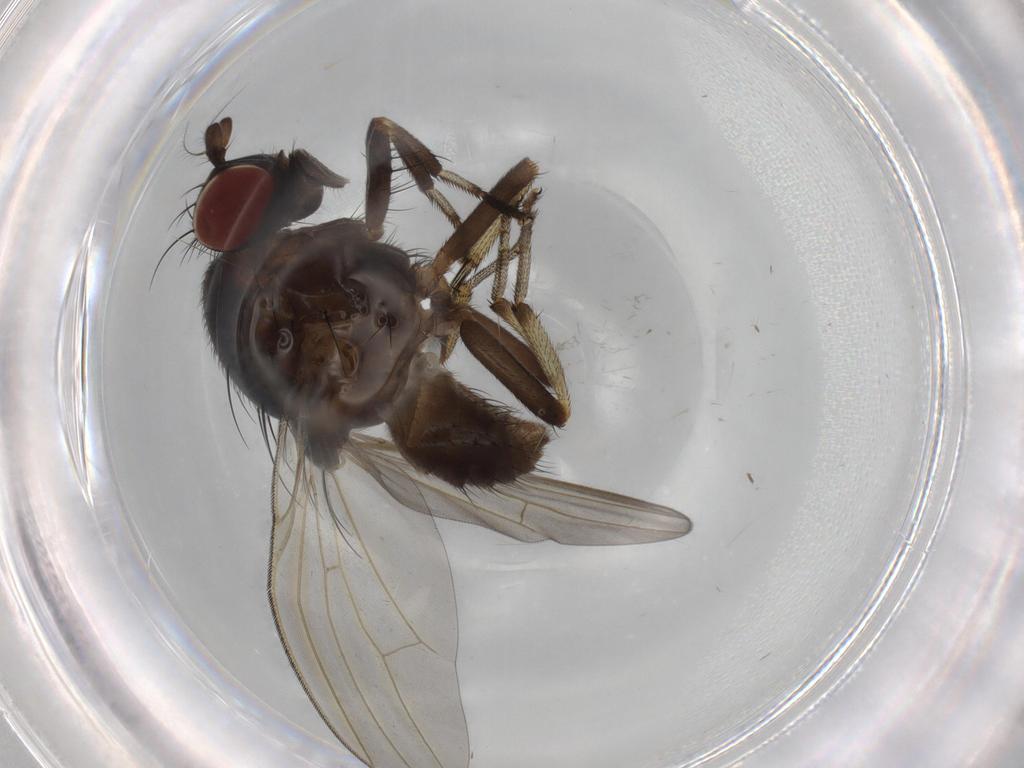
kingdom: Animalia
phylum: Arthropoda
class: Insecta
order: Diptera
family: Lauxaniidae
